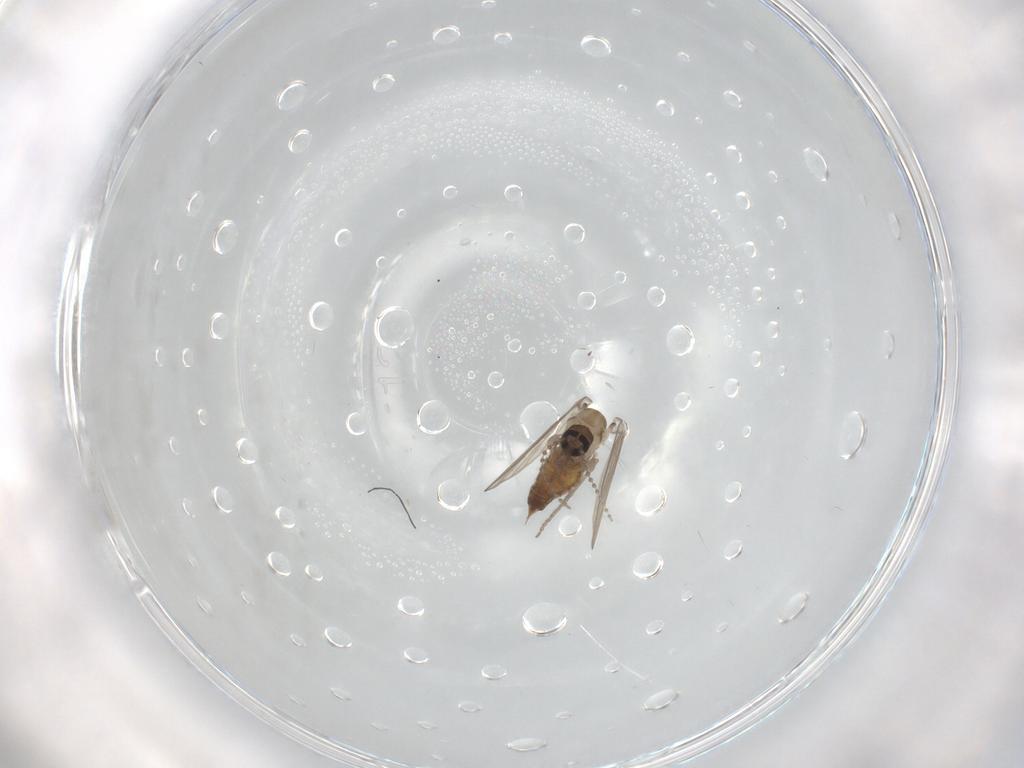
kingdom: Animalia
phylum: Arthropoda
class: Insecta
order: Diptera
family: Psychodidae
